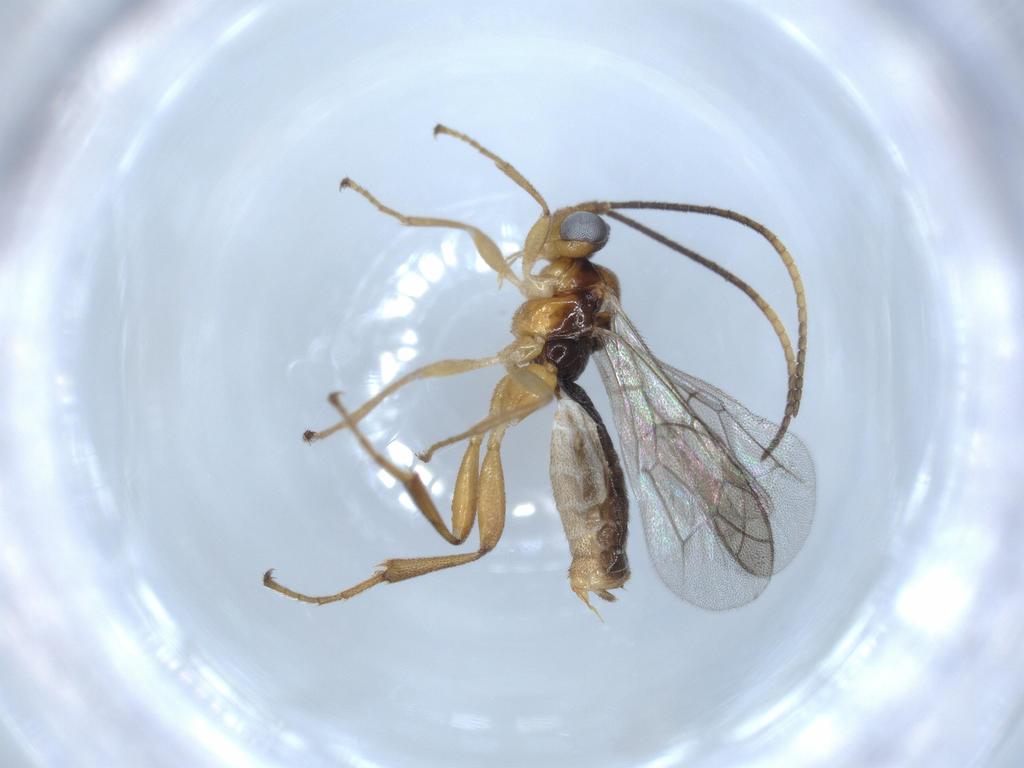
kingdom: Animalia
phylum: Arthropoda
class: Insecta
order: Hymenoptera
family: Formicidae
